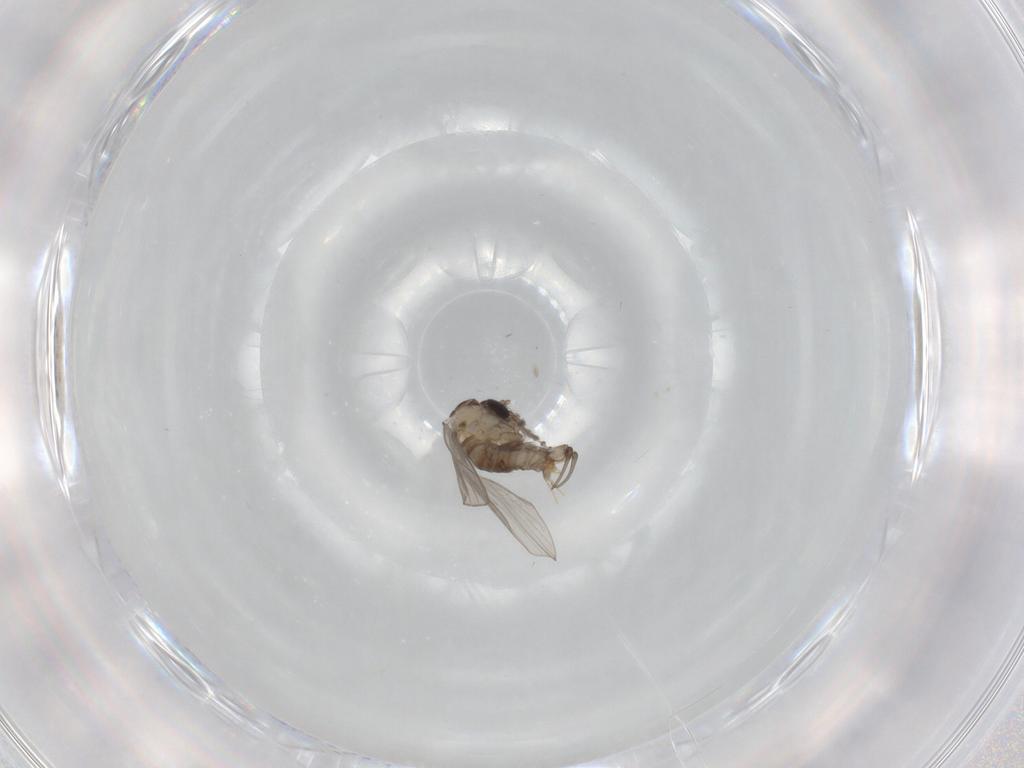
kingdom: Animalia
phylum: Arthropoda
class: Insecta
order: Diptera
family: Psychodidae
